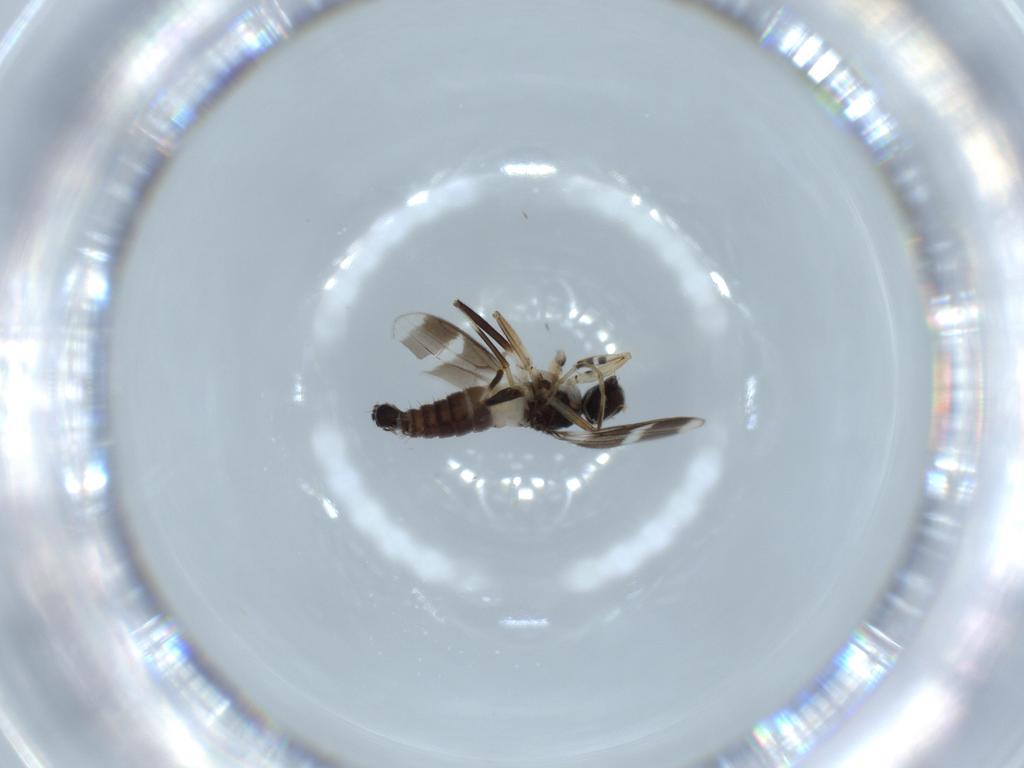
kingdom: Animalia
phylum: Arthropoda
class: Insecta
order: Diptera
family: Hybotidae
